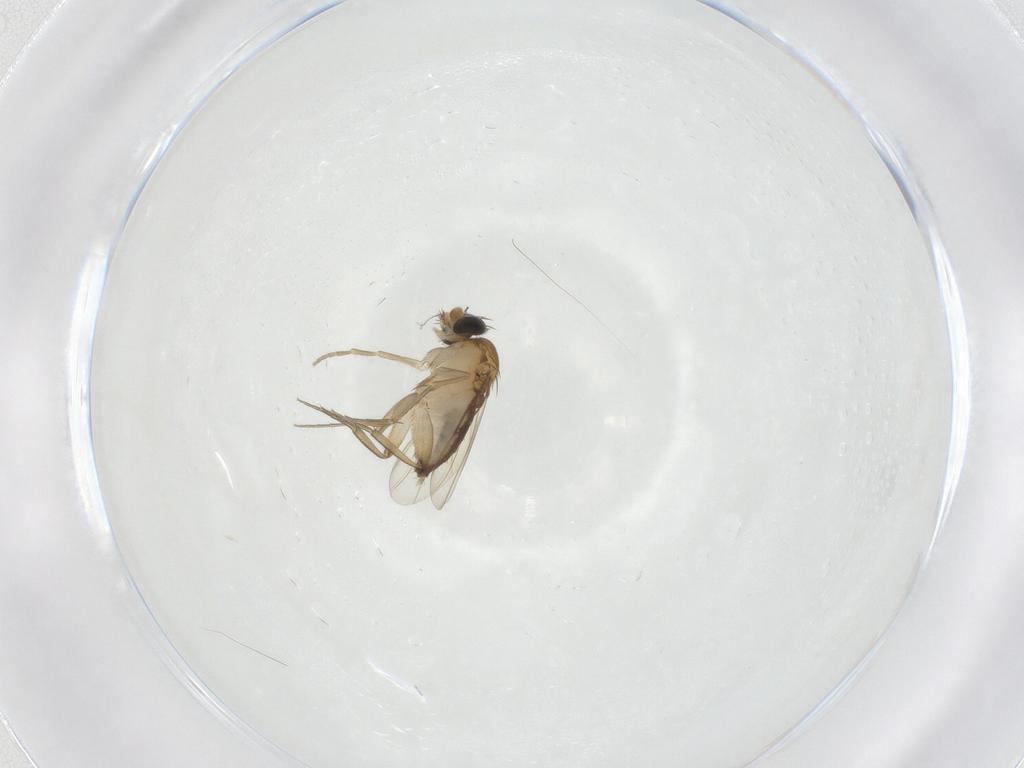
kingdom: Animalia
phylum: Arthropoda
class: Insecta
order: Diptera
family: Phoridae
